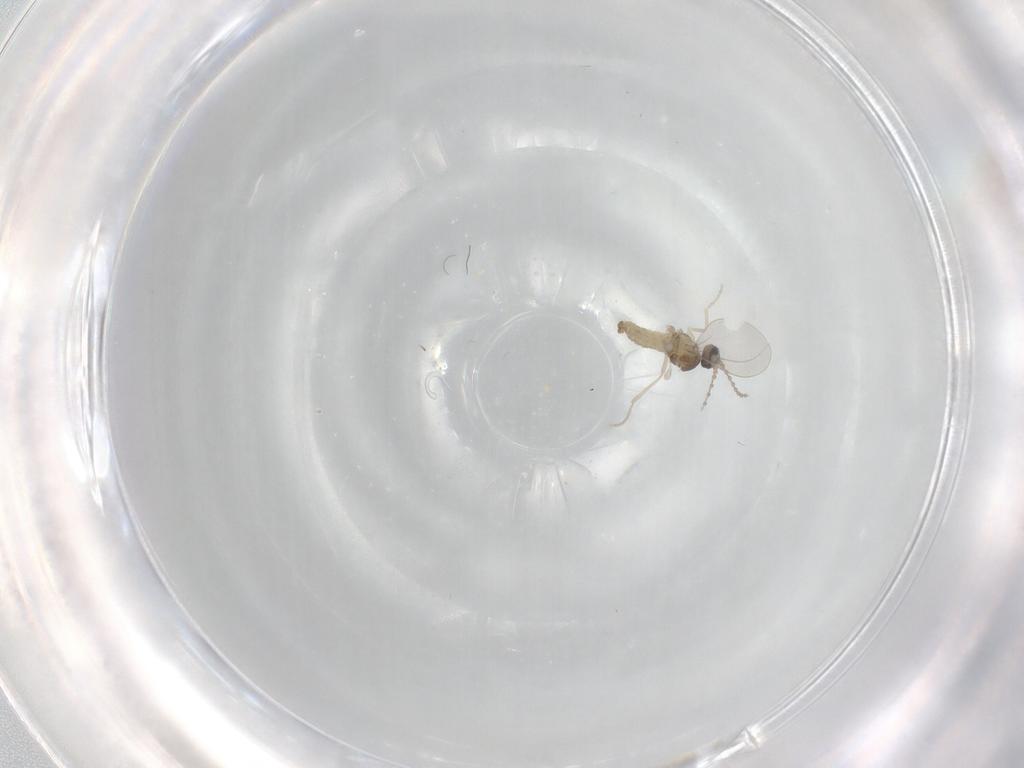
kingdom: Animalia
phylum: Arthropoda
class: Insecta
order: Diptera
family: Cecidomyiidae
